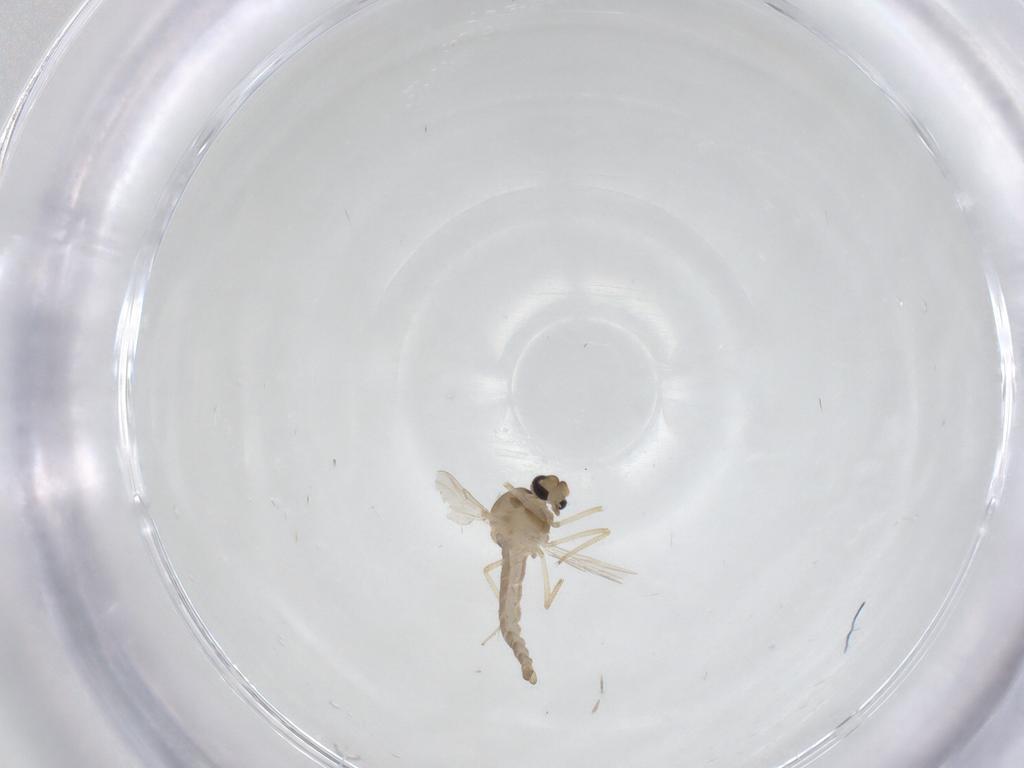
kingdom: Animalia
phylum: Arthropoda
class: Insecta
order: Diptera
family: Ceratopogonidae
